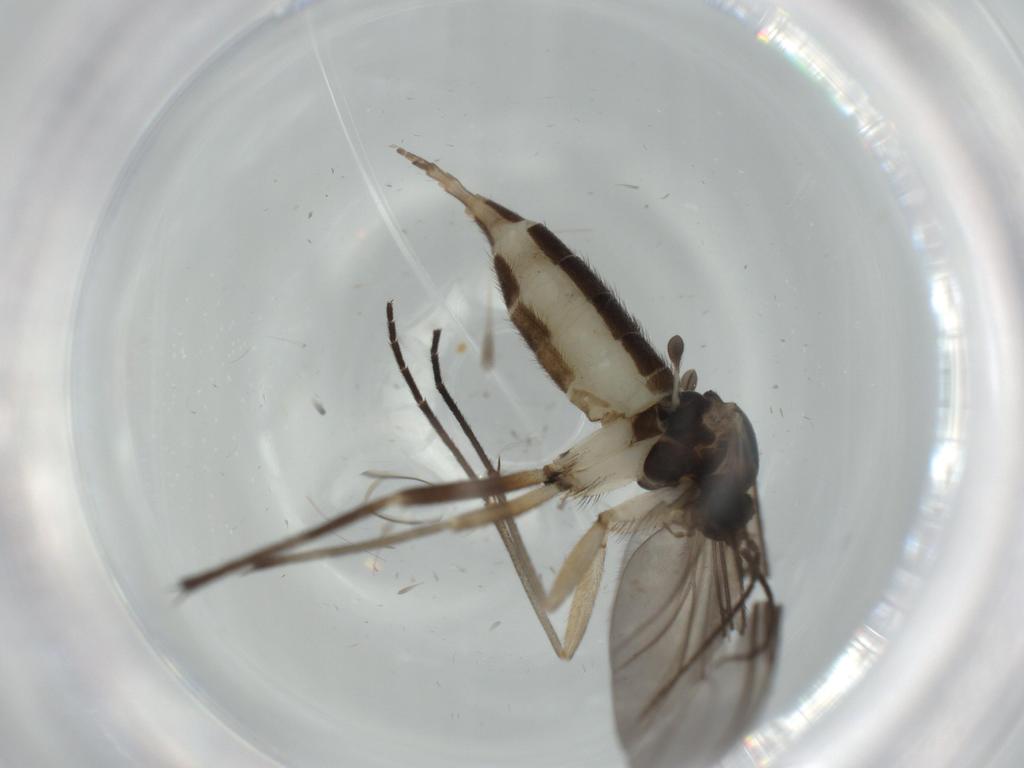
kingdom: Animalia
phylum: Arthropoda
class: Insecta
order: Diptera
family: Sciaridae
